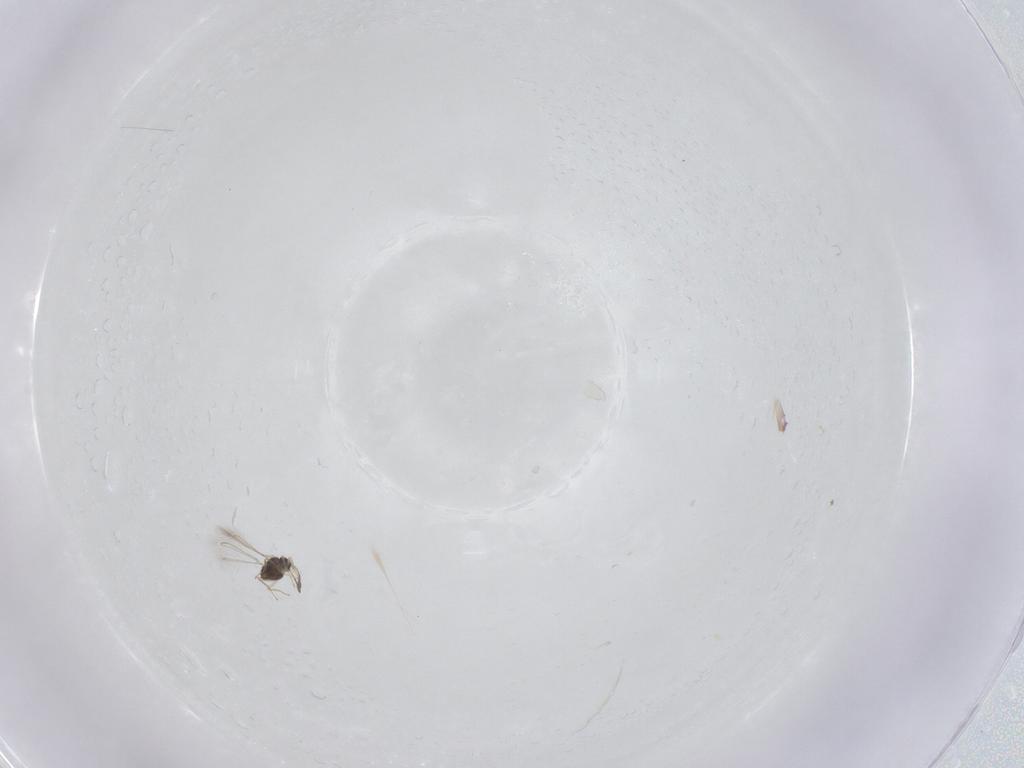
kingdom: Animalia
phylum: Arthropoda
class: Insecta
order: Hymenoptera
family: Mymaridae
